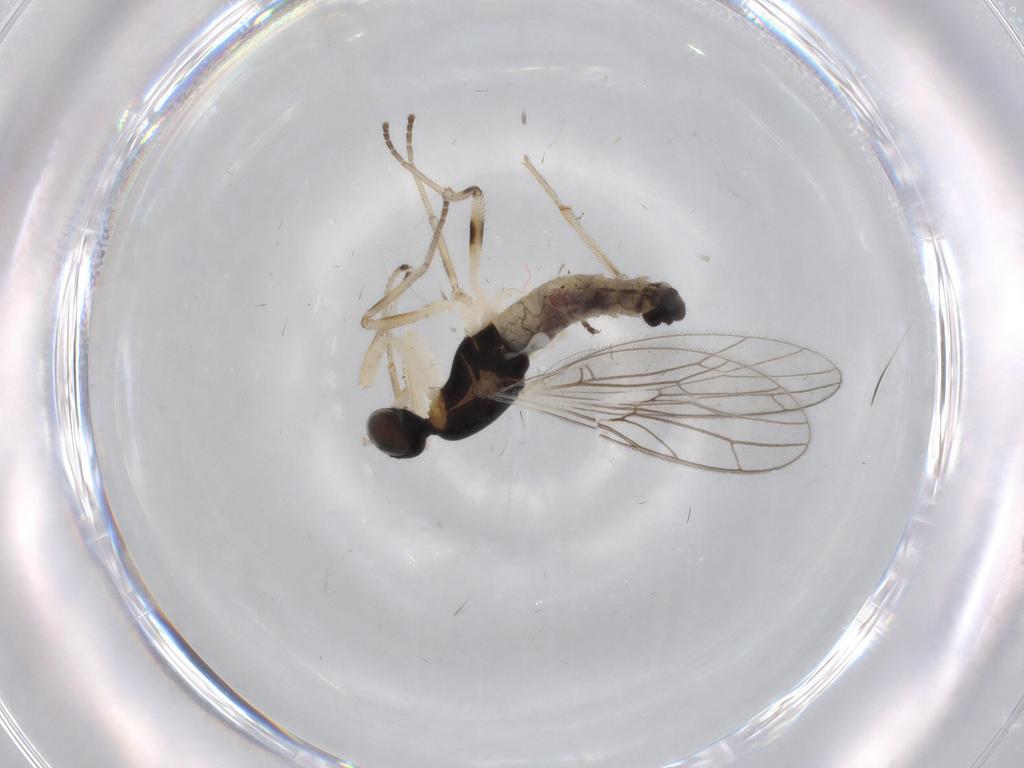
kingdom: Animalia
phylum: Arthropoda
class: Insecta
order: Diptera
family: Empididae
